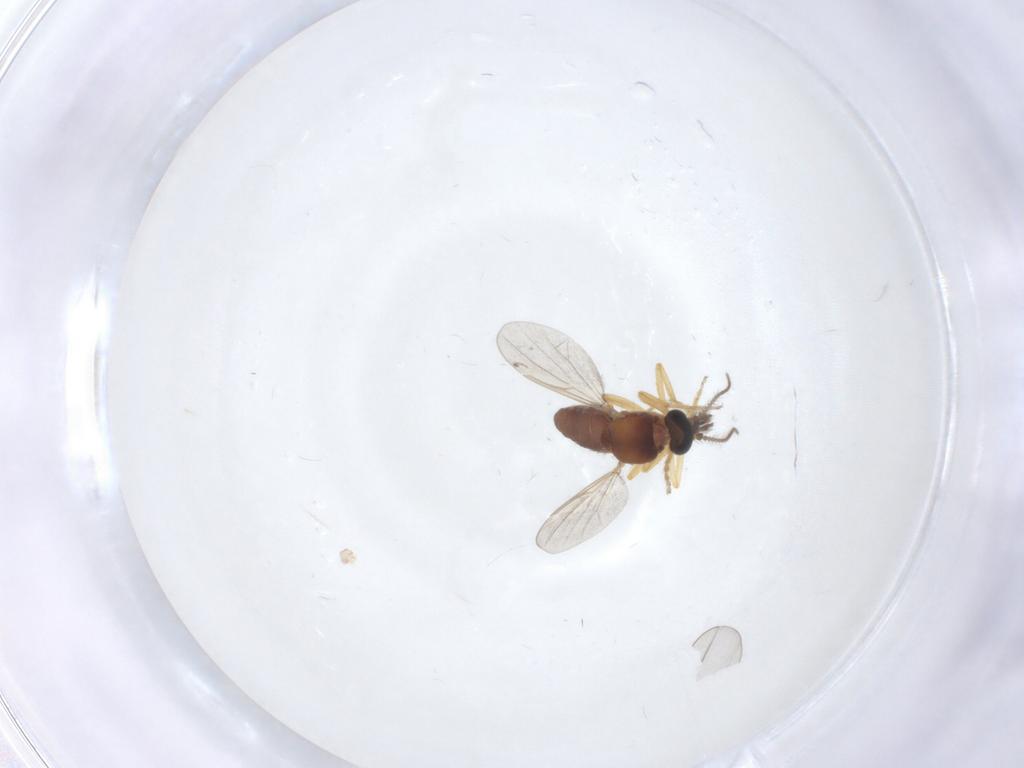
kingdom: Animalia
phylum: Arthropoda
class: Insecta
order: Diptera
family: Ceratopogonidae
